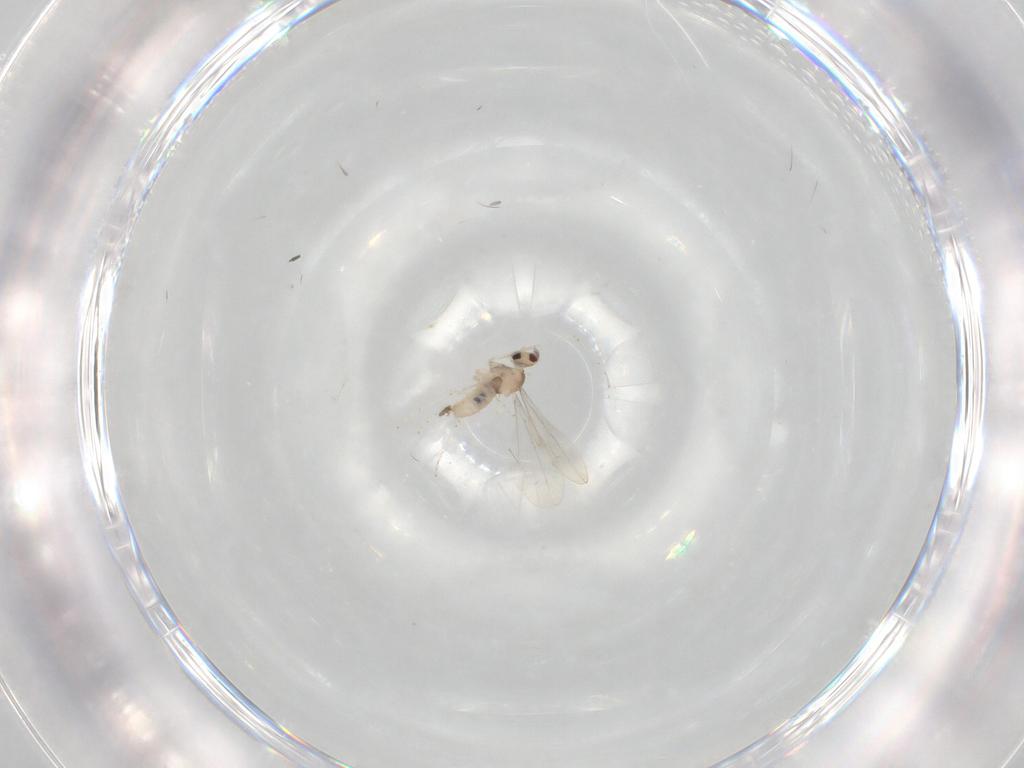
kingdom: Animalia
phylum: Arthropoda
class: Insecta
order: Diptera
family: Cecidomyiidae
